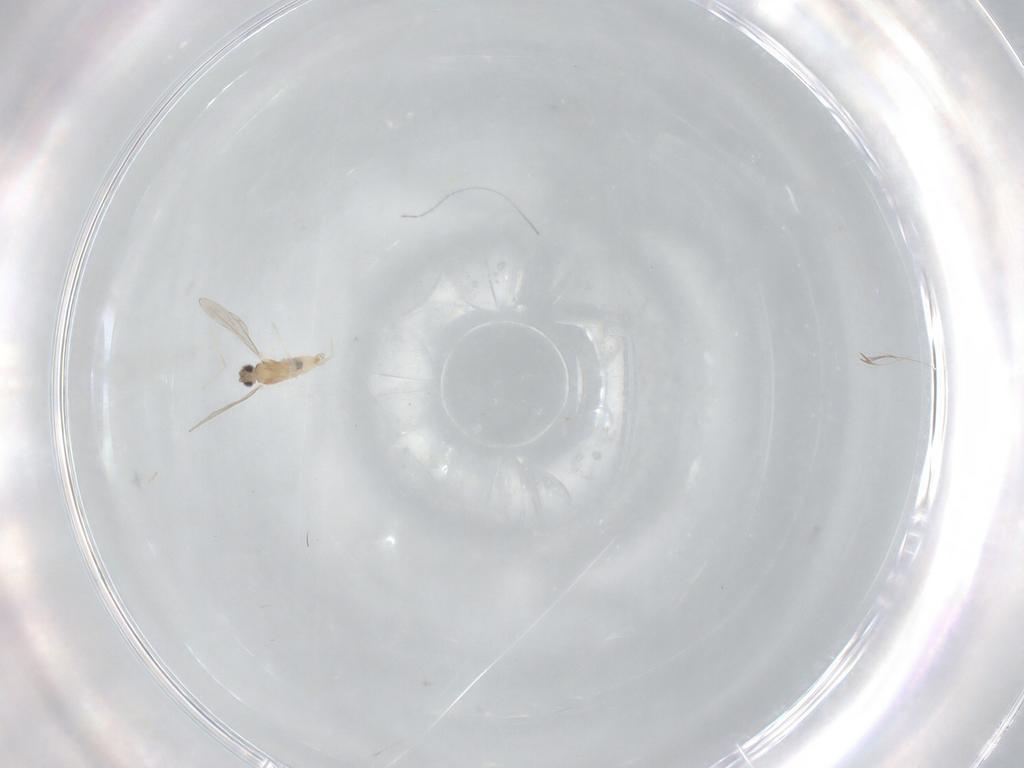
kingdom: Animalia
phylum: Arthropoda
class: Insecta
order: Diptera
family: Cecidomyiidae
